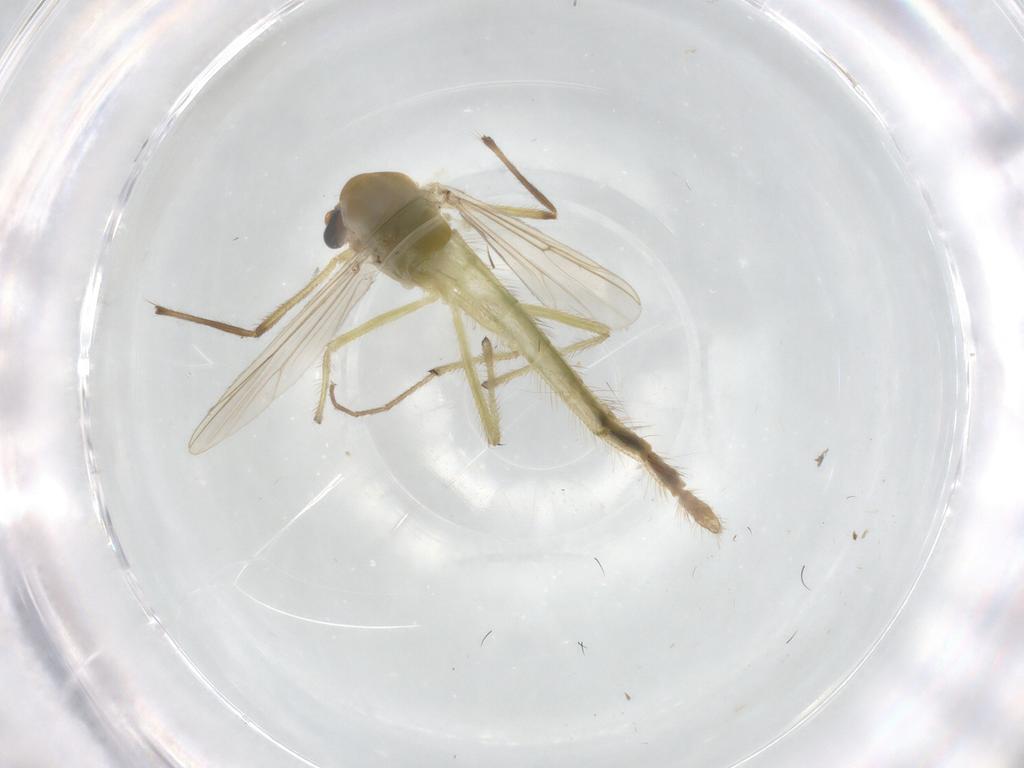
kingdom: Animalia
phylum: Arthropoda
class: Insecta
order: Diptera
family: Chironomidae
